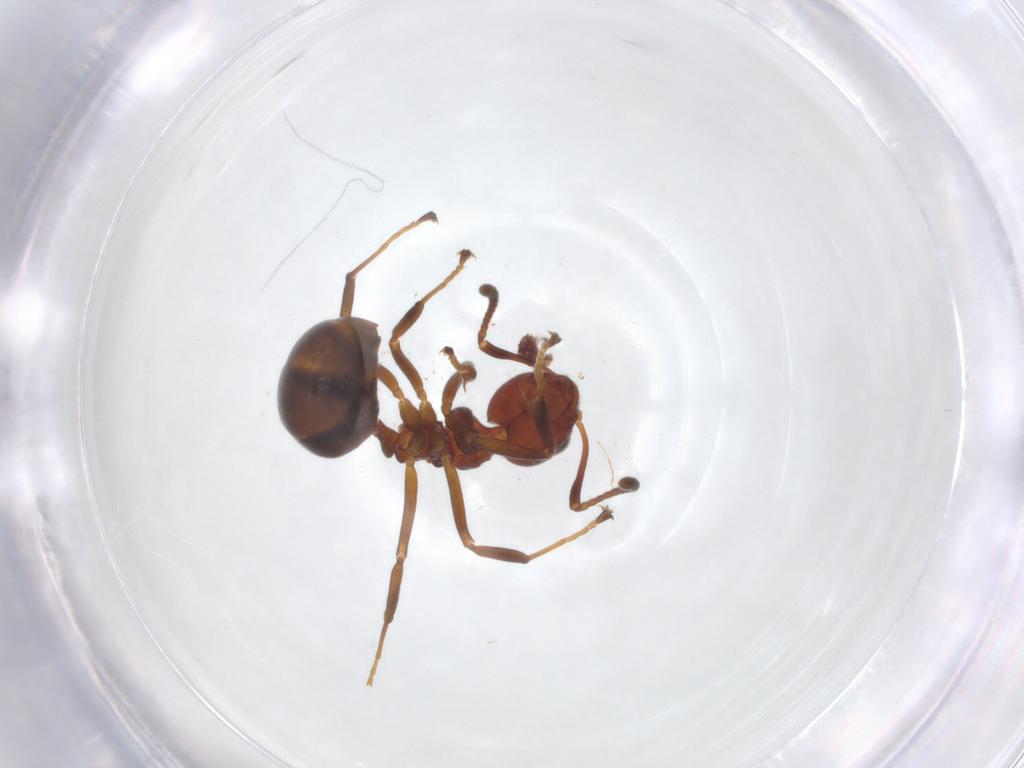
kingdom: Animalia
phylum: Arthropoda
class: Insecta
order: Hymenoptera
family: Formicidae
